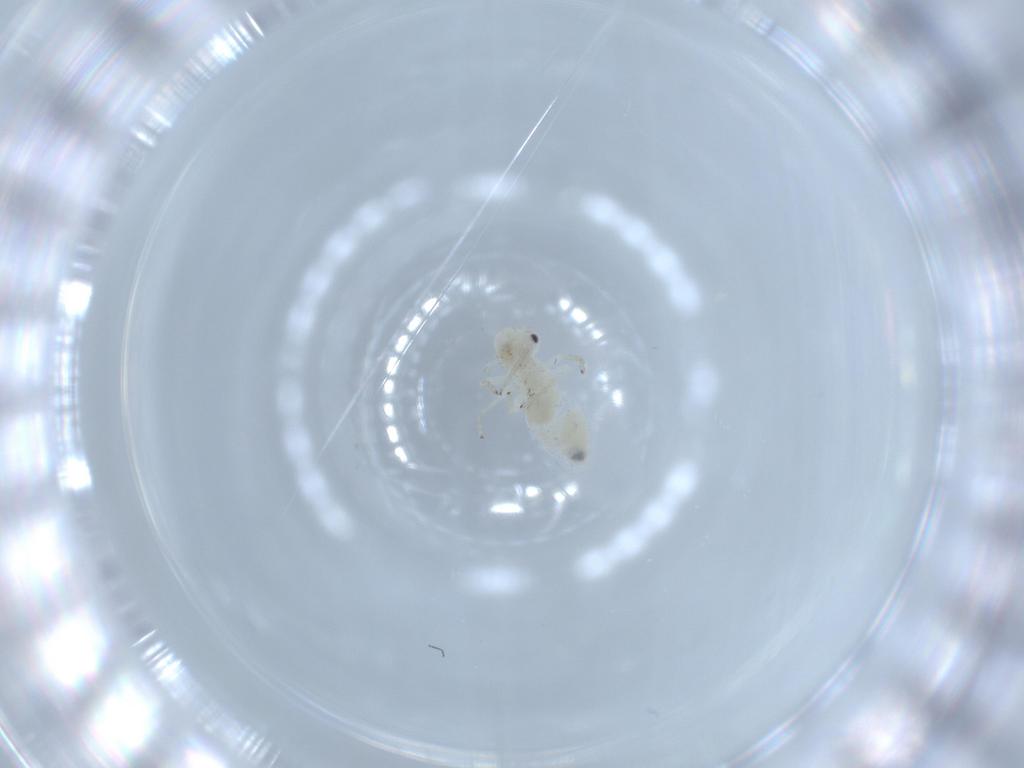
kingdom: Animalia
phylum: Arthropoda
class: Insecta
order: Psocodea
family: Caeciliusidae
